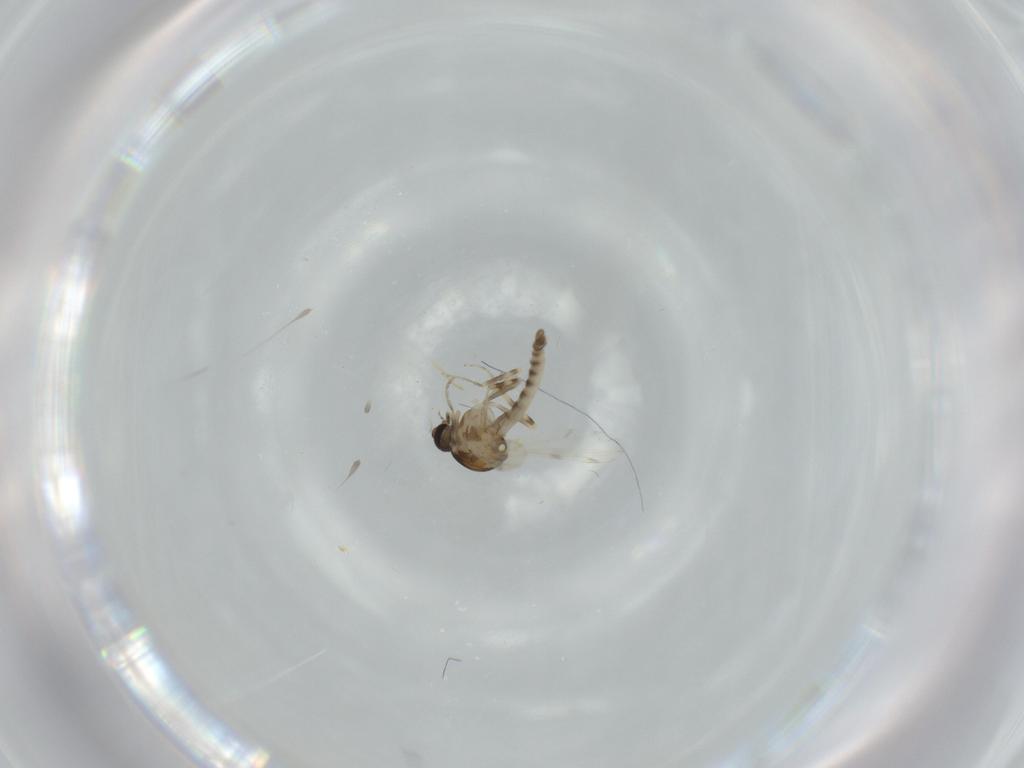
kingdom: Animalia
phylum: Arthropoda
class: Insecta
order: Diptera
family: Ceratopogonidae
